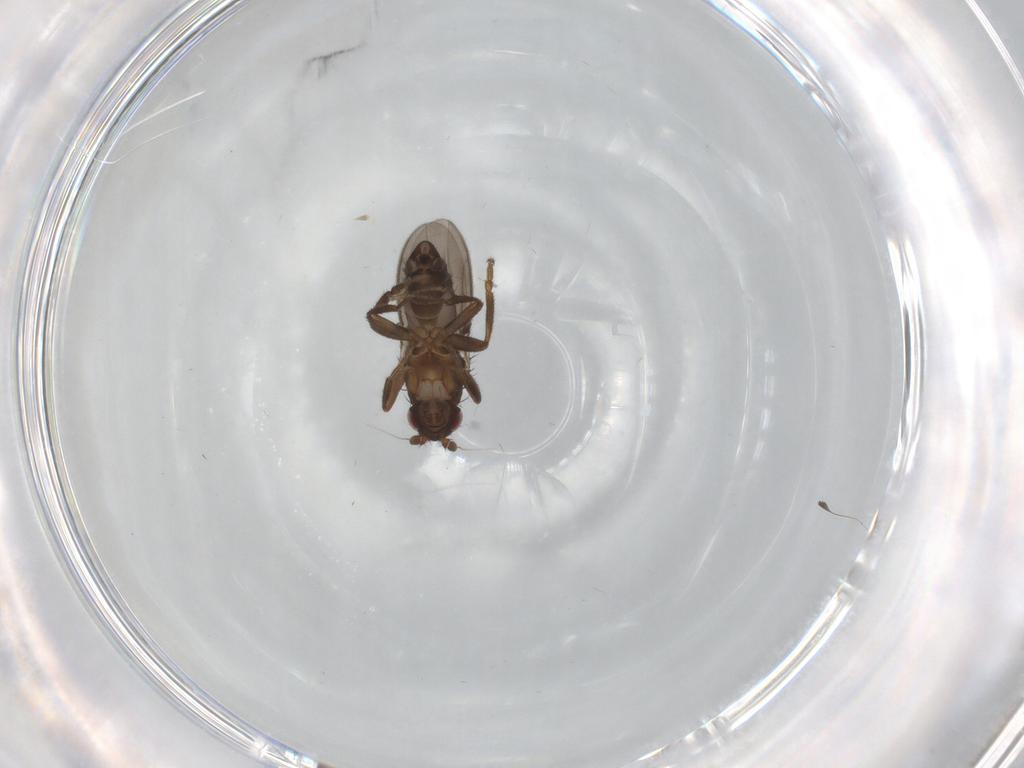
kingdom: Animalia
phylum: Arthropoda
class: Insecta
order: Diptera
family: Sphaeroceridae
